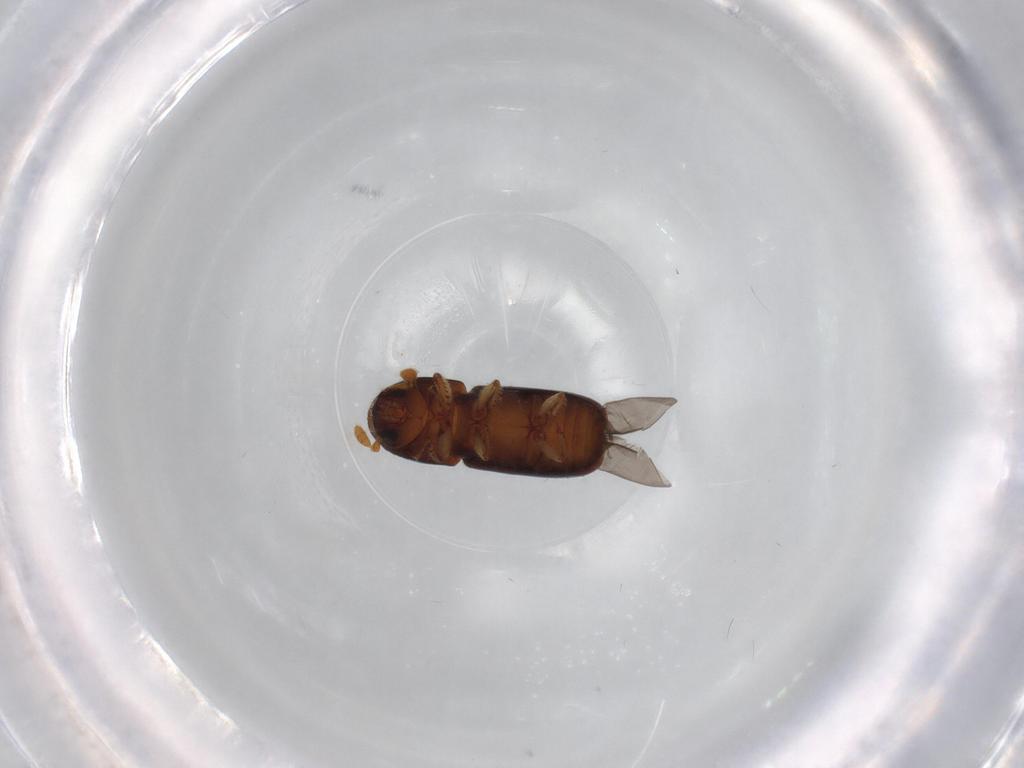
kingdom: Animalia
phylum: Arthropoda
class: Insecta
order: Coleoptera
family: Curculionidae
